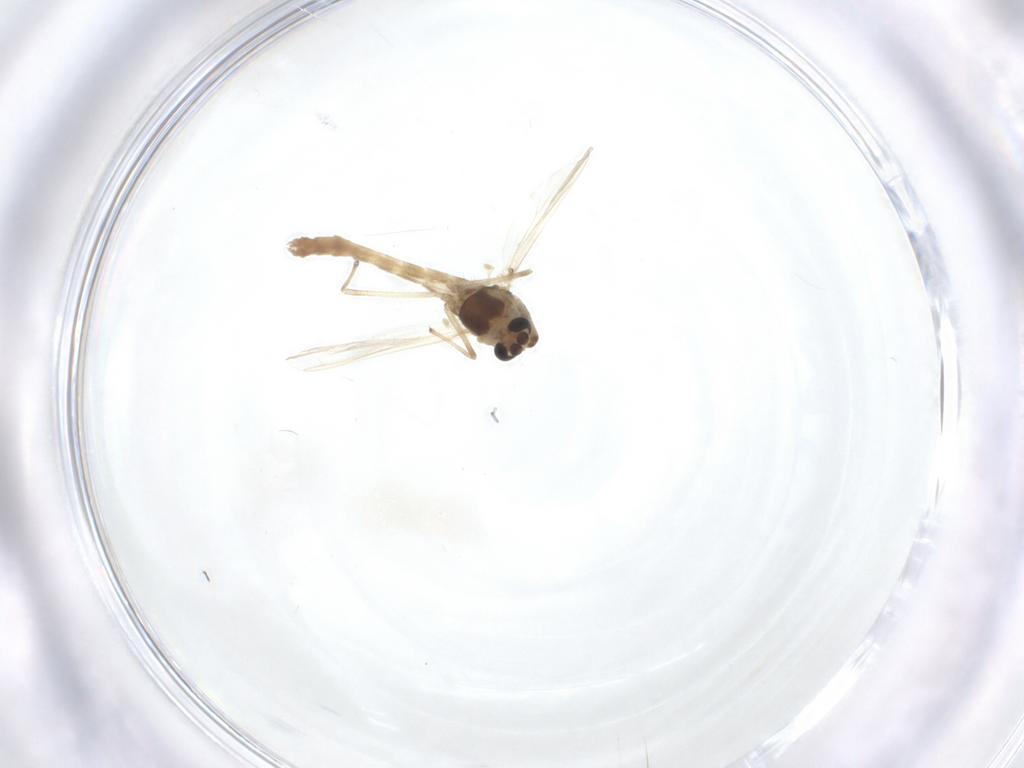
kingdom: Animalia
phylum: Arthropoda
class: Insecta
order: Diptera
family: Chironomidae
